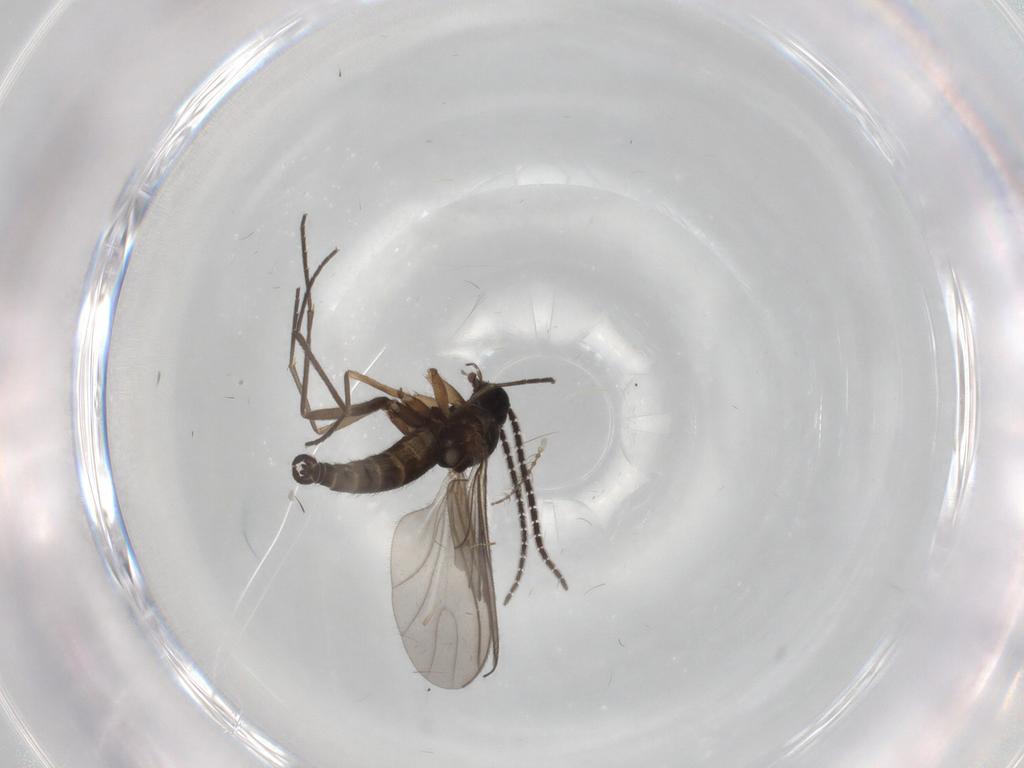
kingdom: Animalia
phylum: Arthropoda
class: Insecta
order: Diptera
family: Sciaridae
